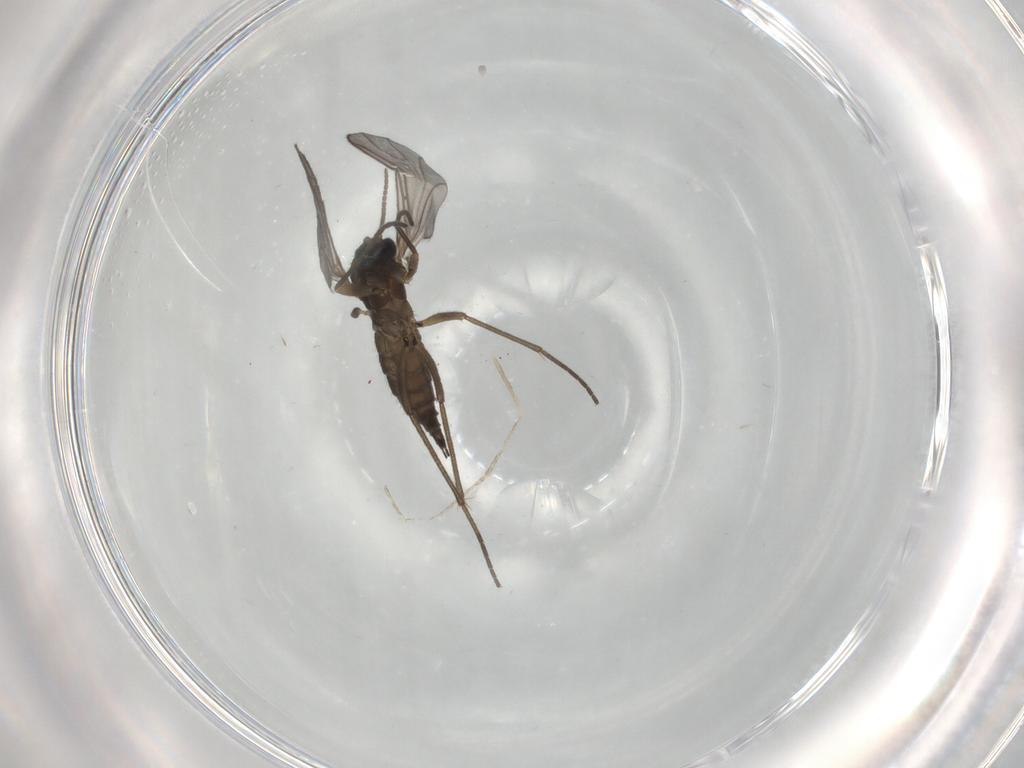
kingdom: Animalia
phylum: Arthropoda
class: Insecta
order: Diptera
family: Sciaridae
